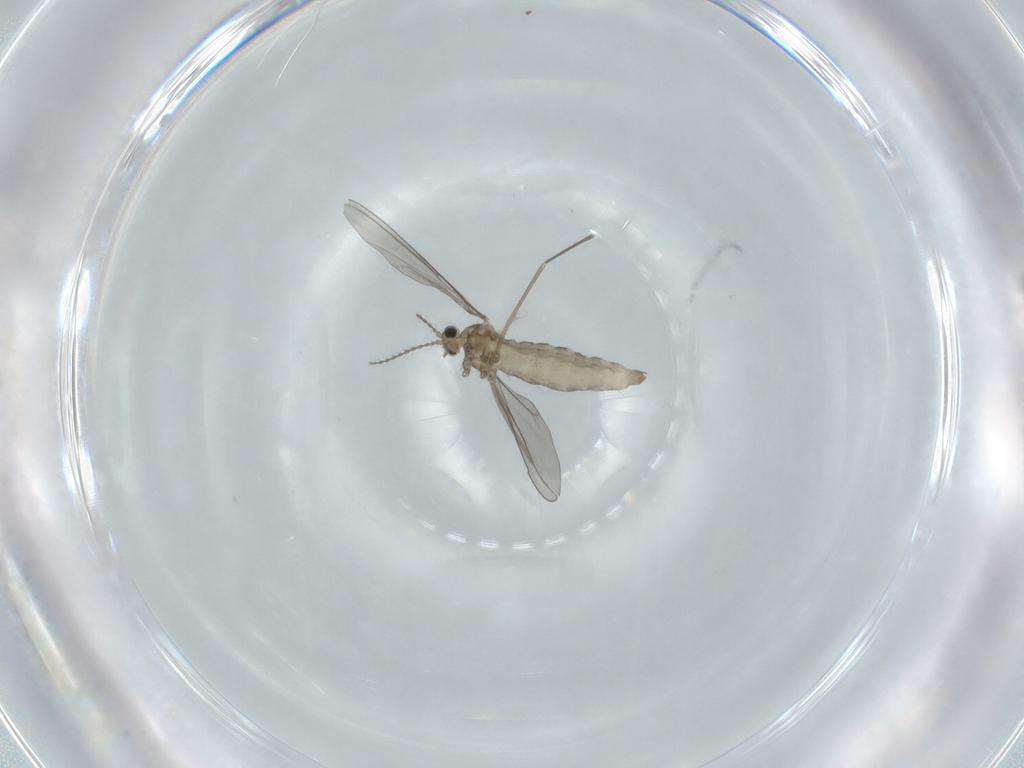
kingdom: Animalia
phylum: Arthropoda
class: Insecta
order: Diptera
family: Cecidomyiidae
